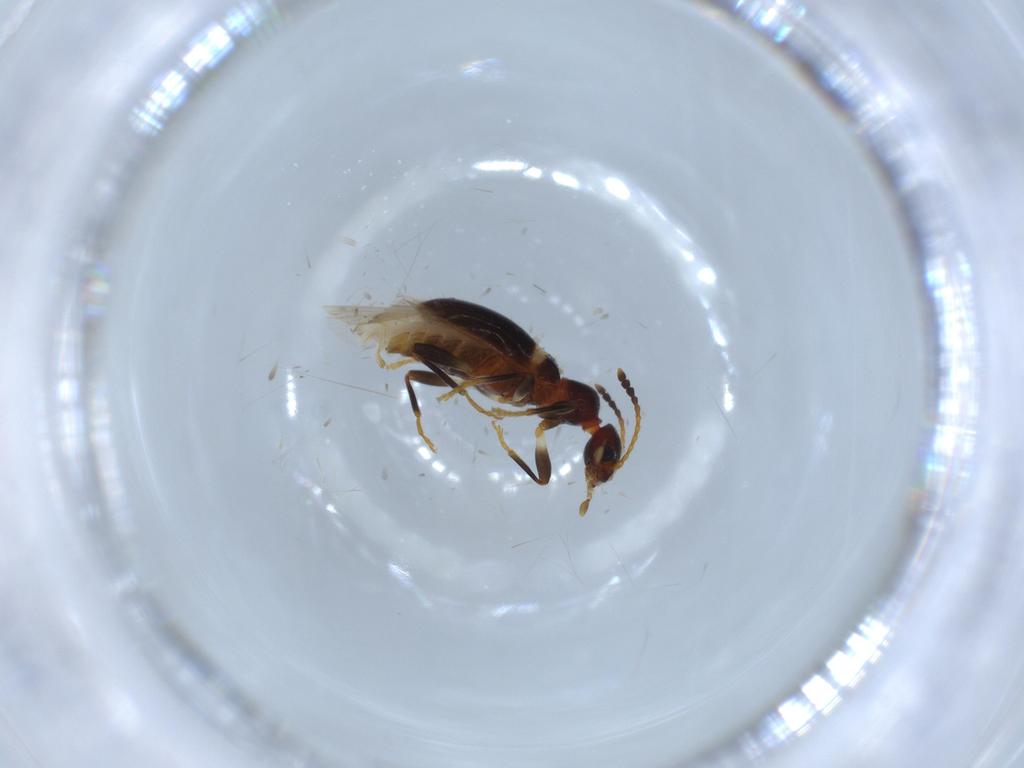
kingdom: Animalia
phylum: Arthropoda
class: Insecta
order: Coleoptera
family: Anthicidae
